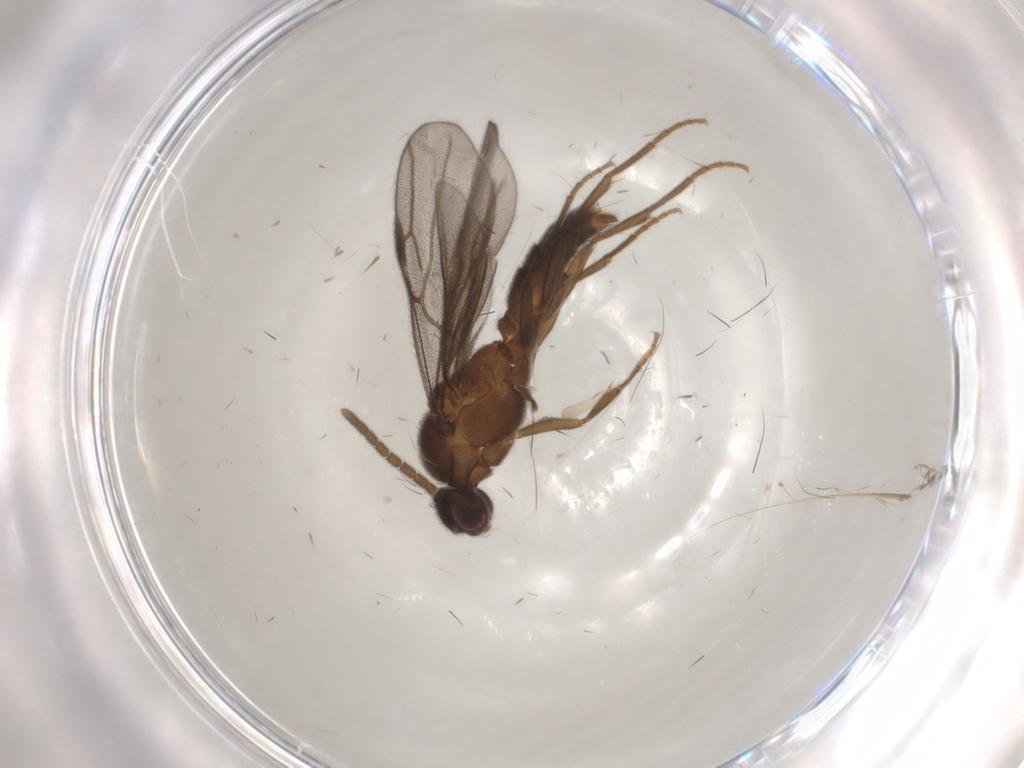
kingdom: Animalia
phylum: Arthropoda
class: Insecta
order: Hymenoptera
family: Formicidae
